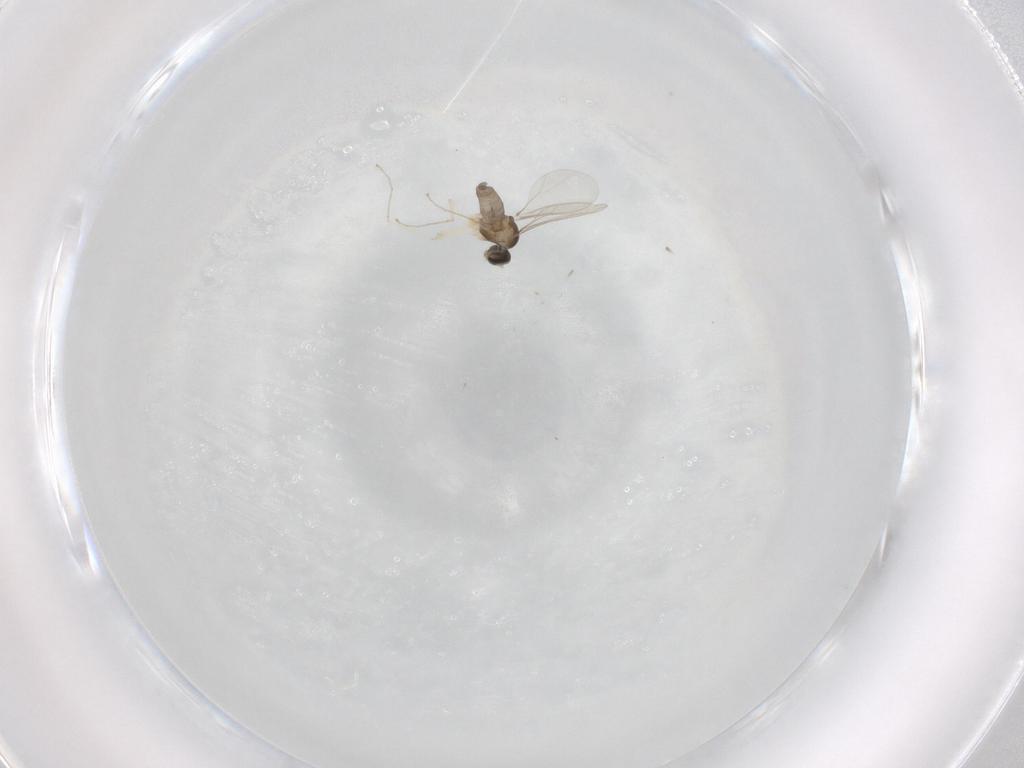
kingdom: Animalia
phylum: Arthropoda
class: Insecta
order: Diptera
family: Cecidomyiidae
